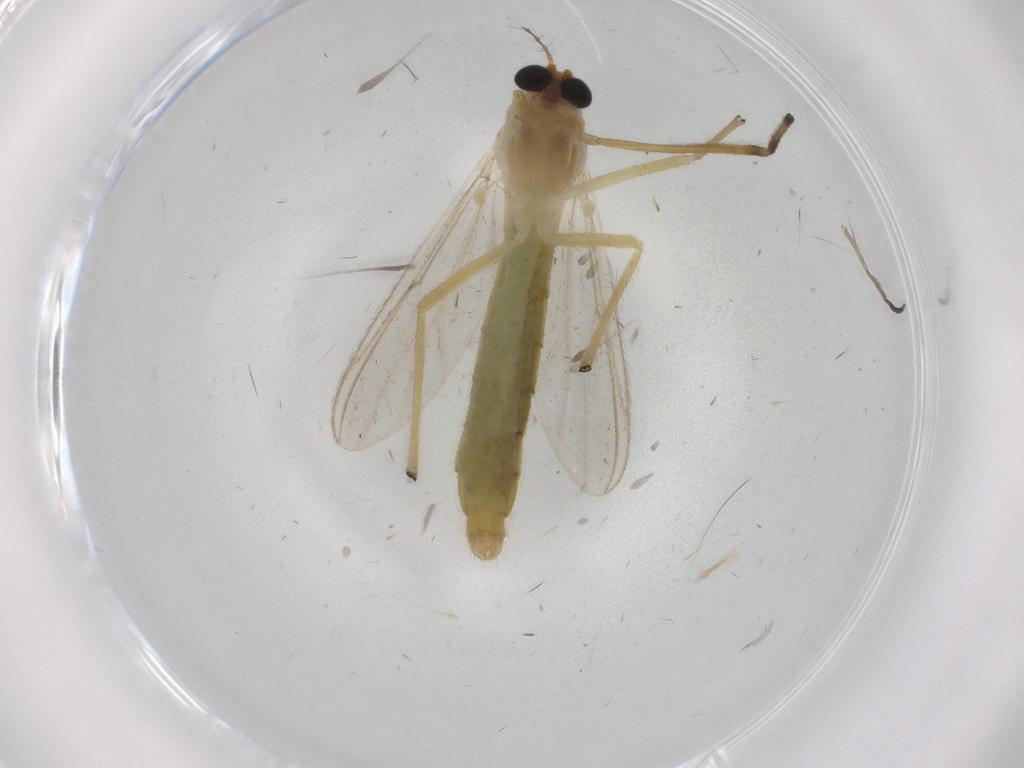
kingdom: Animalia
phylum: Arthropoda
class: Insecta
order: Diptera
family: Chironomidae
